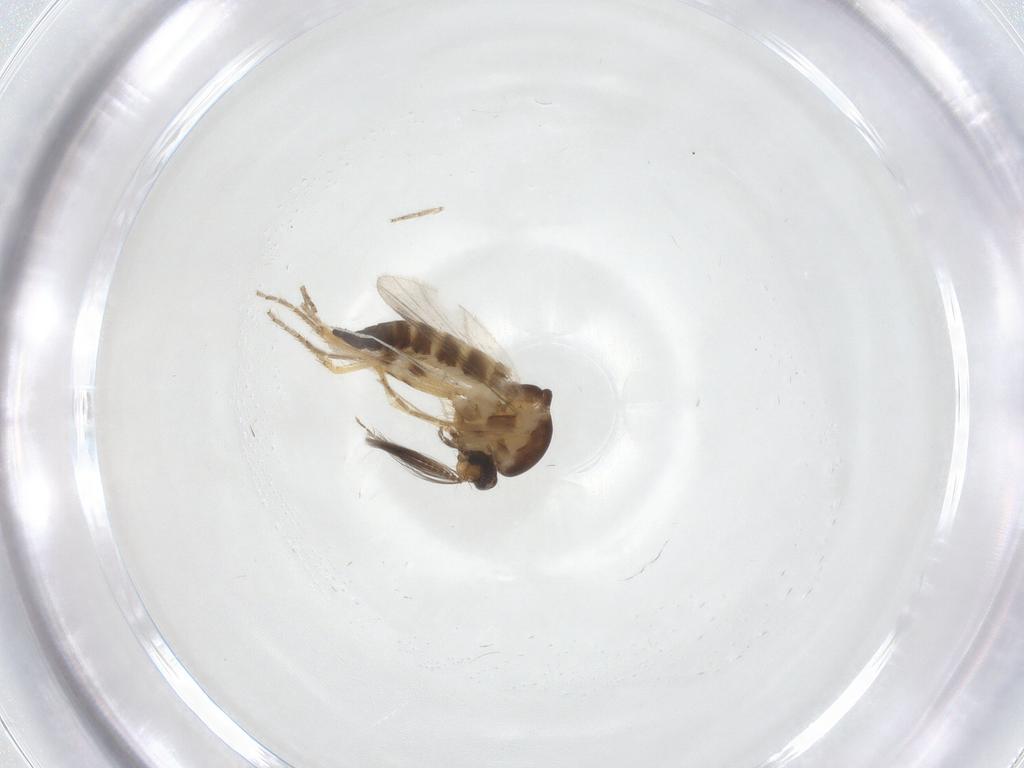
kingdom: Animalia
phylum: Arthropoda
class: Insecta
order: Diptera
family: Ceratopogonidae
